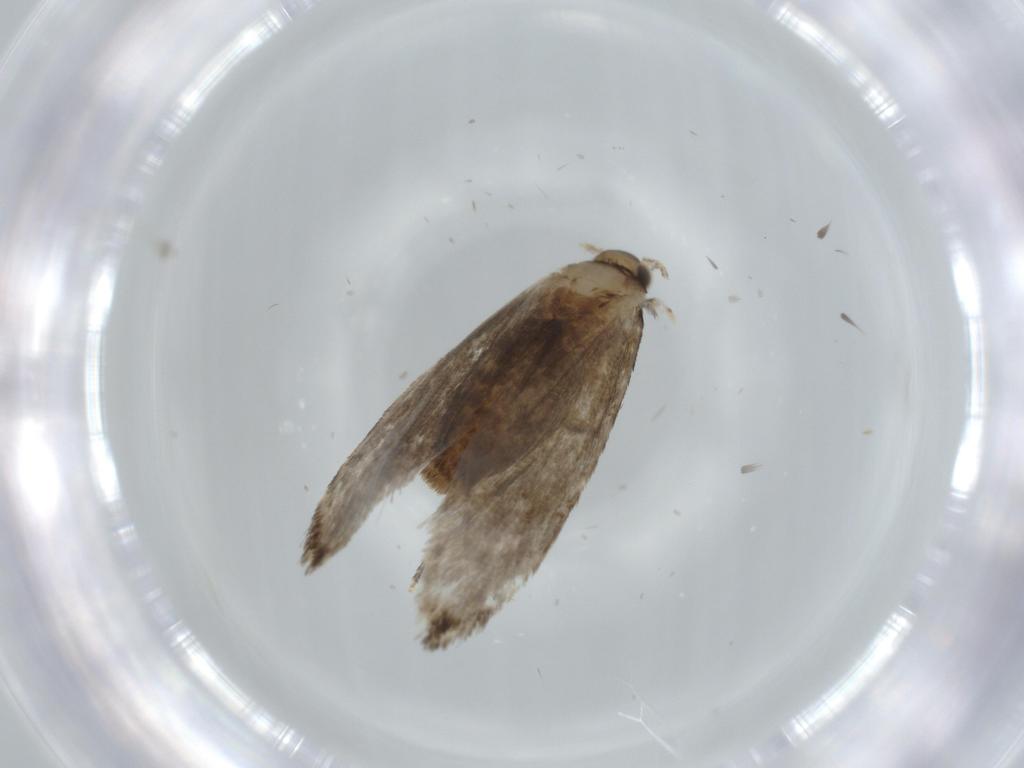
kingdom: Animalia
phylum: Arthropoda
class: Insecta
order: Lepidoptera
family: Tineidae
